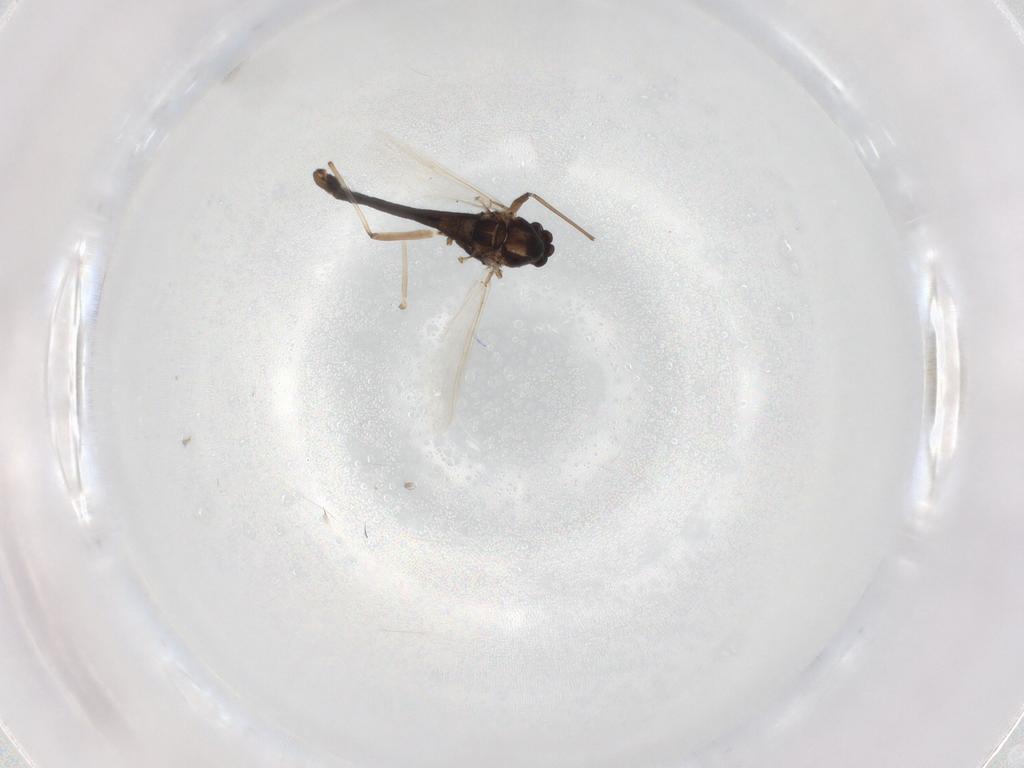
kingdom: Animalia
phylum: Arthropoda
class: Insecta
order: Diptera
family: Chironomidae
